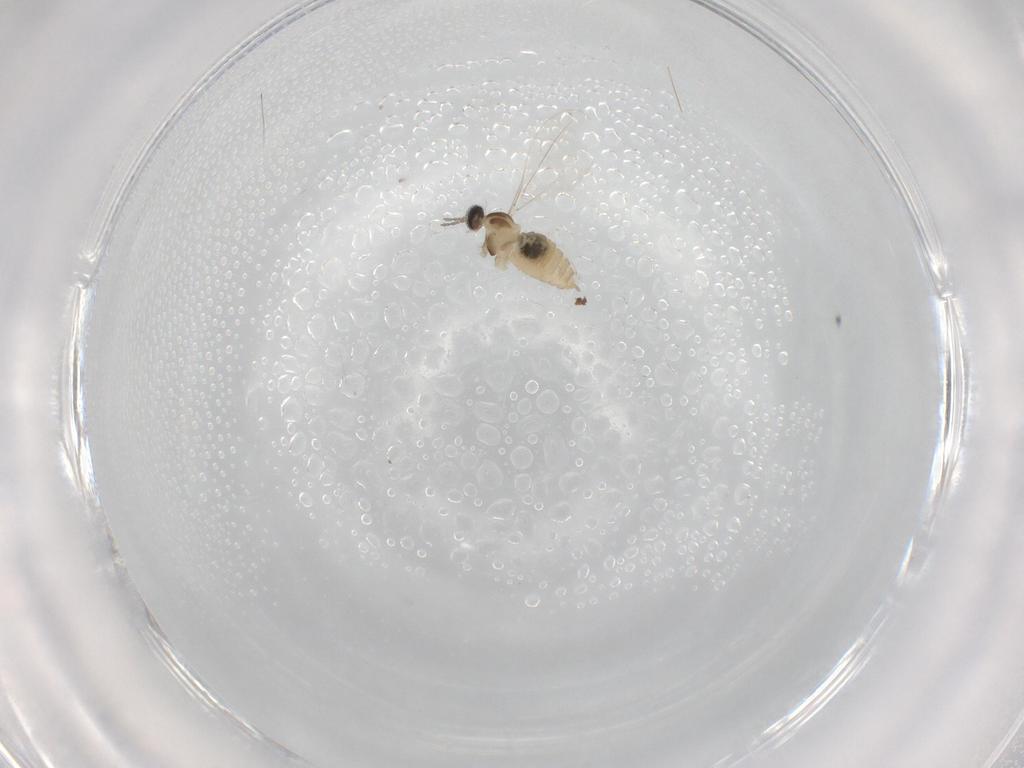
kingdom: Animalia
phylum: Arthropoda
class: Insecta
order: Diptera
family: Cecidomyiidae
